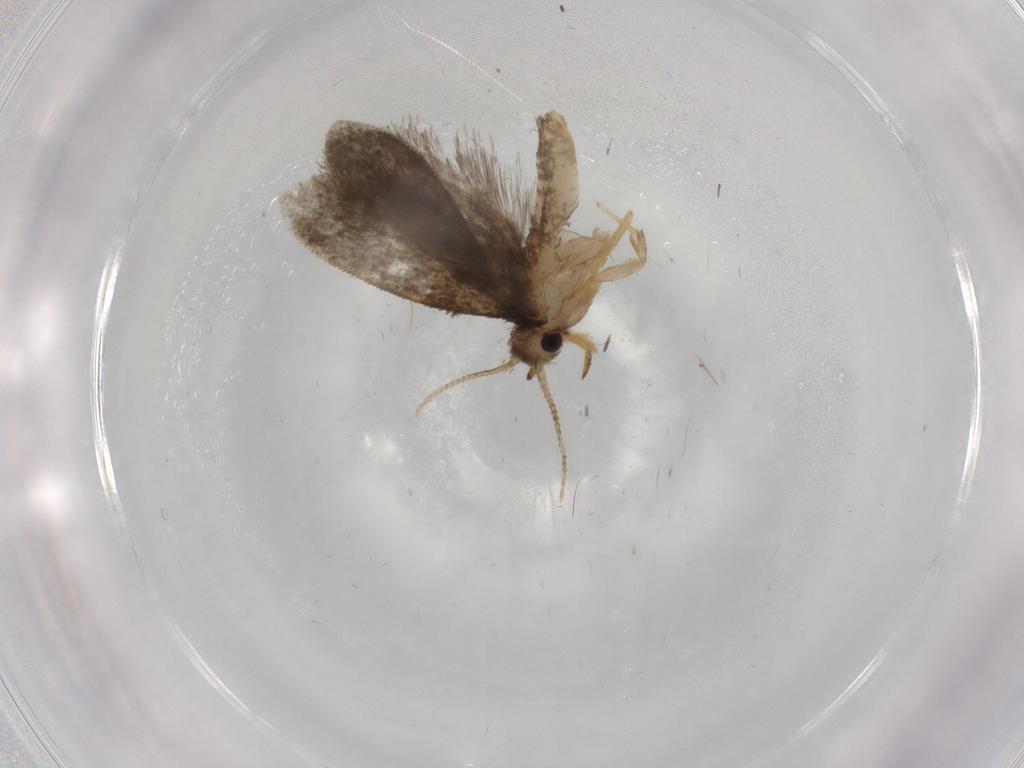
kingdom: Animalia
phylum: Arthropoda
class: Insecta
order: Lepidoptera
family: Psychidae
